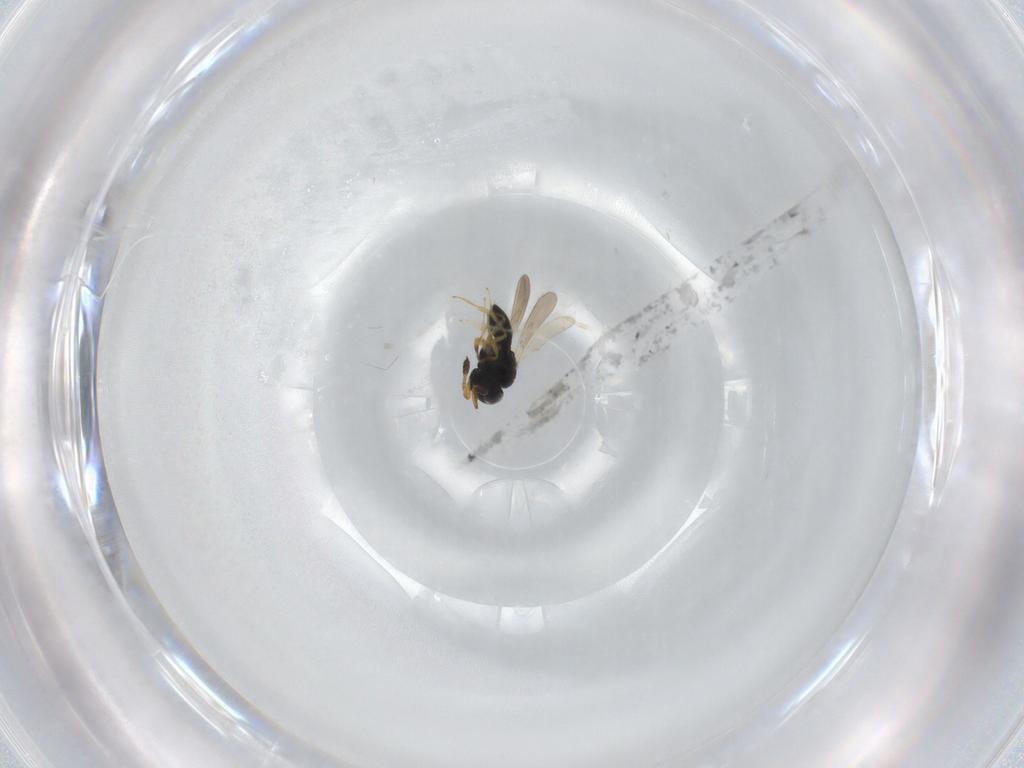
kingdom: Animalia
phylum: Arthropoda
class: Insecta
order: Hymenoptera
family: Scelionidae
